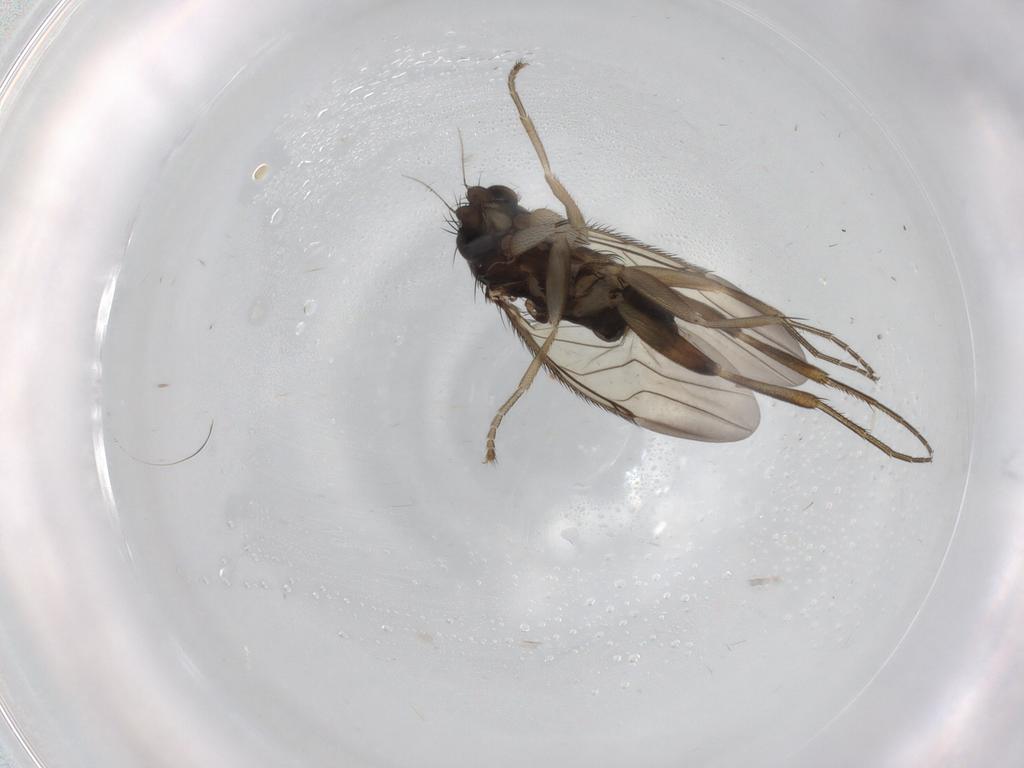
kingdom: Animalia
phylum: Arthropoda
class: Insecta
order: Diptera
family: Phoridae
